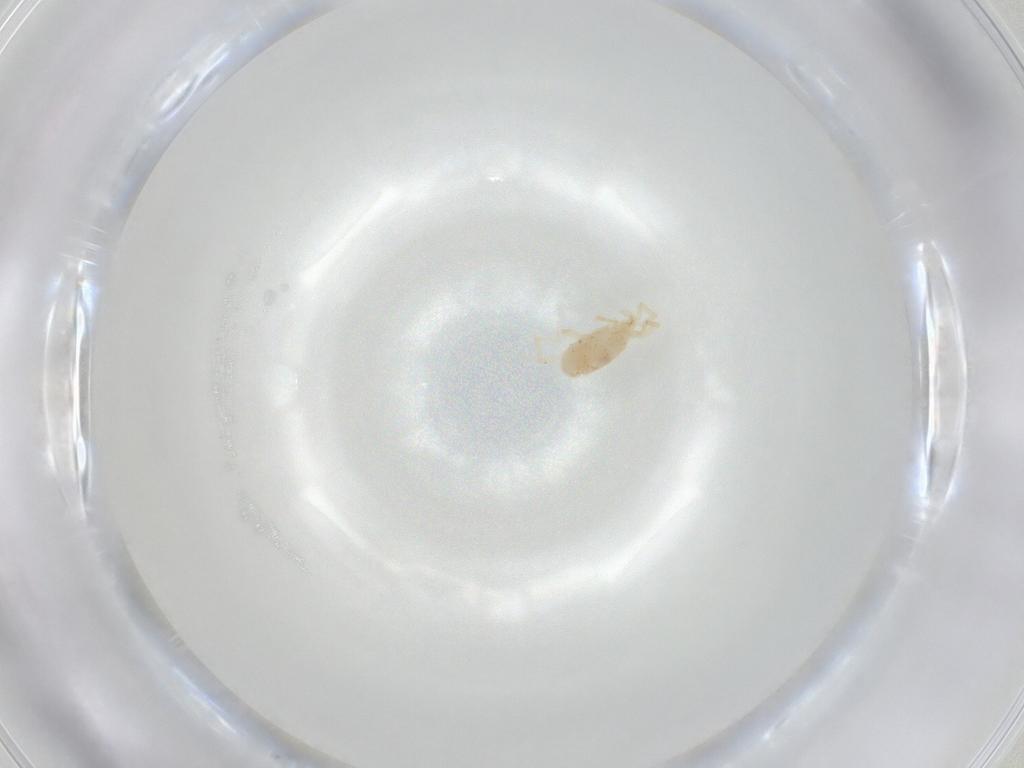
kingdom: Animalia
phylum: Arthropoda
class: Arachnida
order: Trombidiformes
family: Erythraeidae
